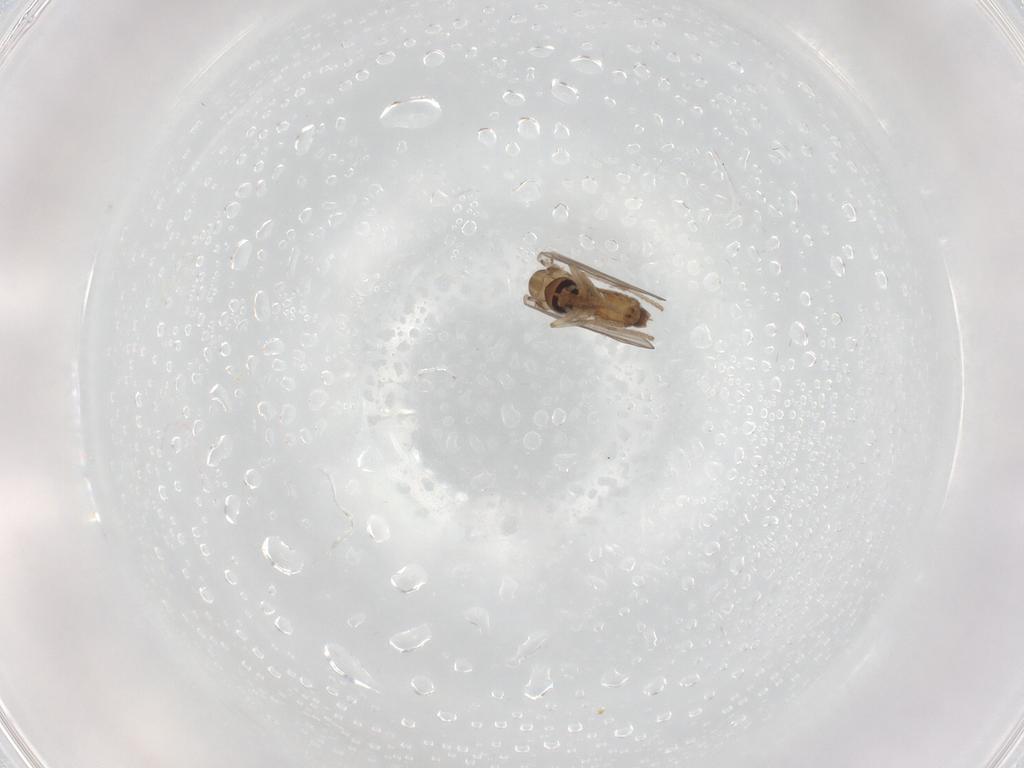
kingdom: Animalia
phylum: Arthropoda
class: Insecta
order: Diptera
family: Psychodidae
